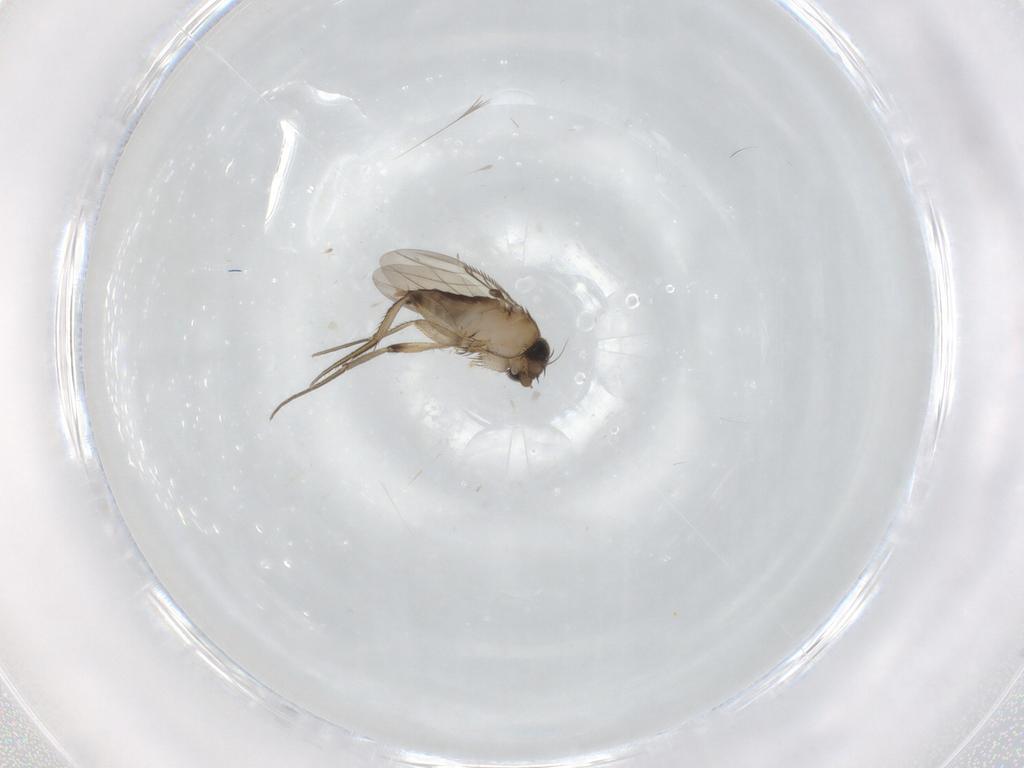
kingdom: Animalia
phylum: Arthropoda
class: Insecta
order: Diptera
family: Phoridae
